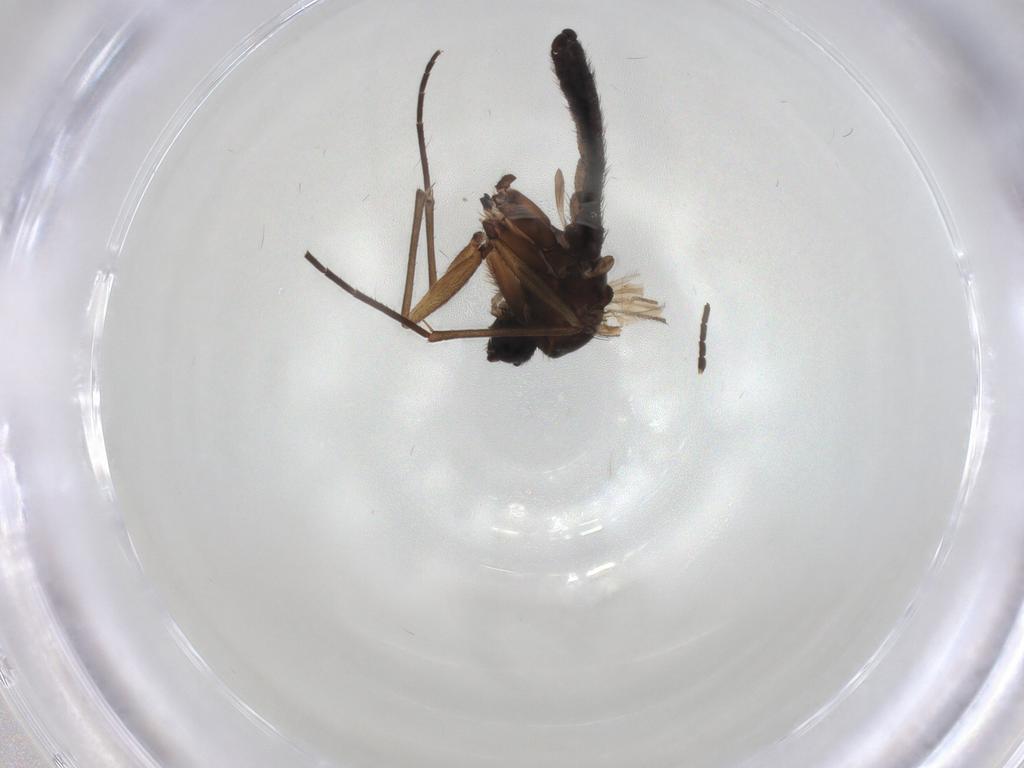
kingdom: Animalia
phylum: Arthropoda
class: Insecta
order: Diptera
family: Sciaridae
